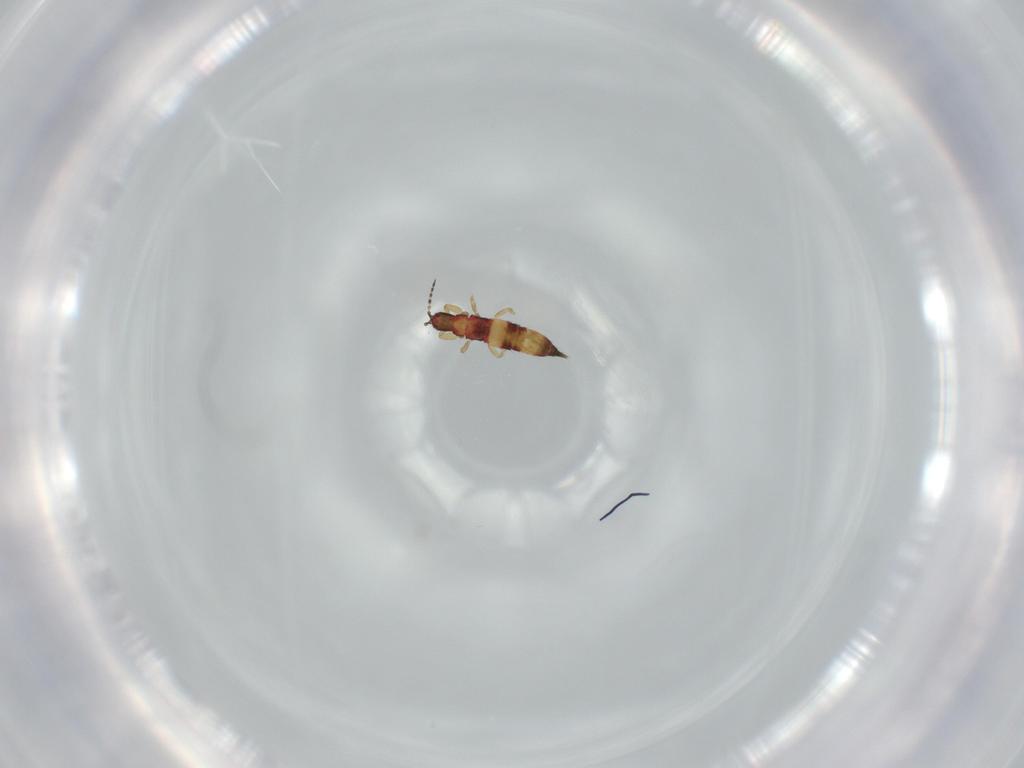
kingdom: Animalia
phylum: Arthropoda
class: Insecta
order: Thysanoptera
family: Phlaeothripidae
